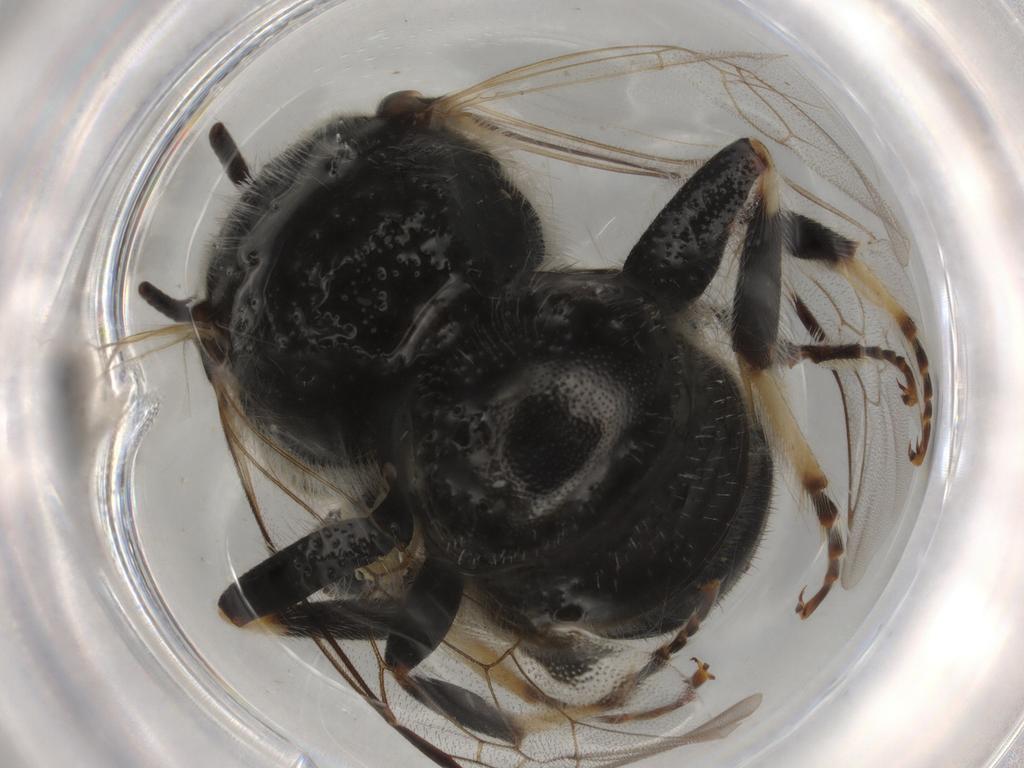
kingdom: Animalia
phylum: Arthropoda
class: Insecta
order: Hymenoptera
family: Halictidae
